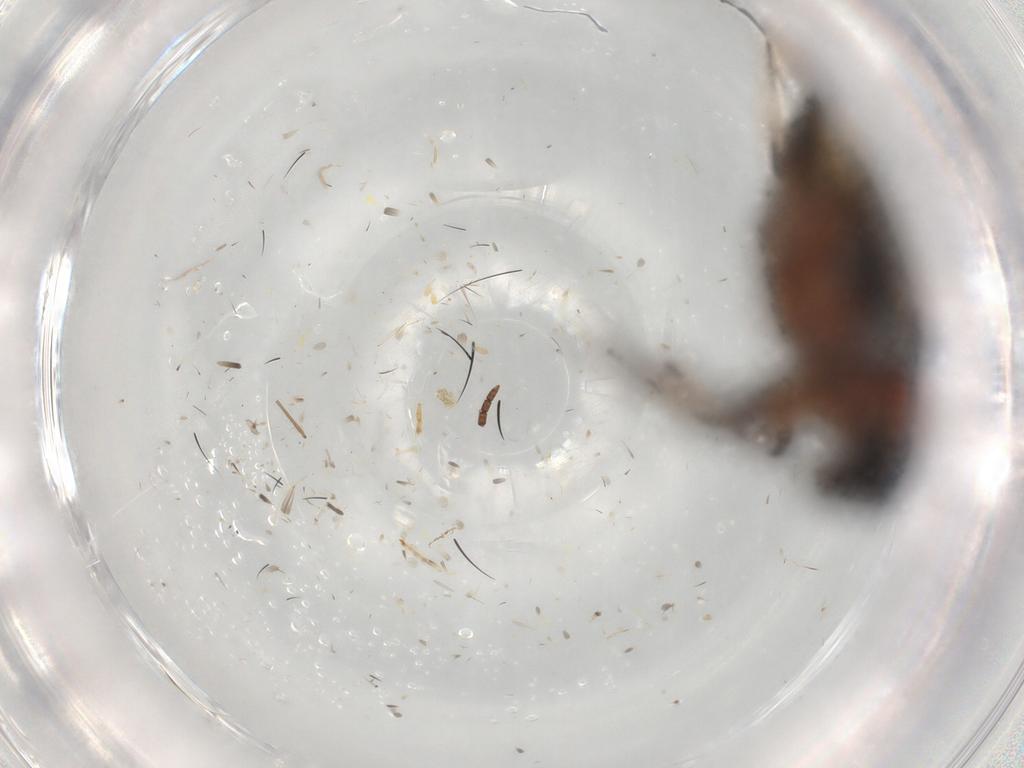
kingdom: Animalia
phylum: Arthropoda
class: Insecta
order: Coleoptera
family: Chrysomelidae
